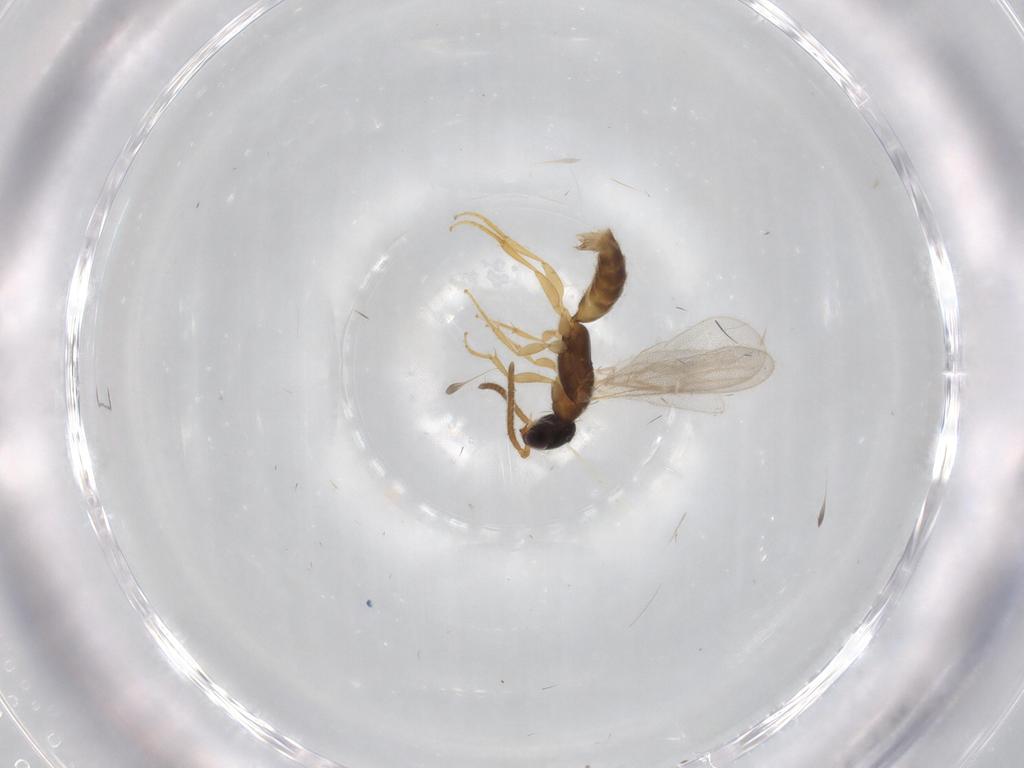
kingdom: Animalia
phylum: Arthropoda
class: Insecta
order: Hymenoptera
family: Bethylidae
